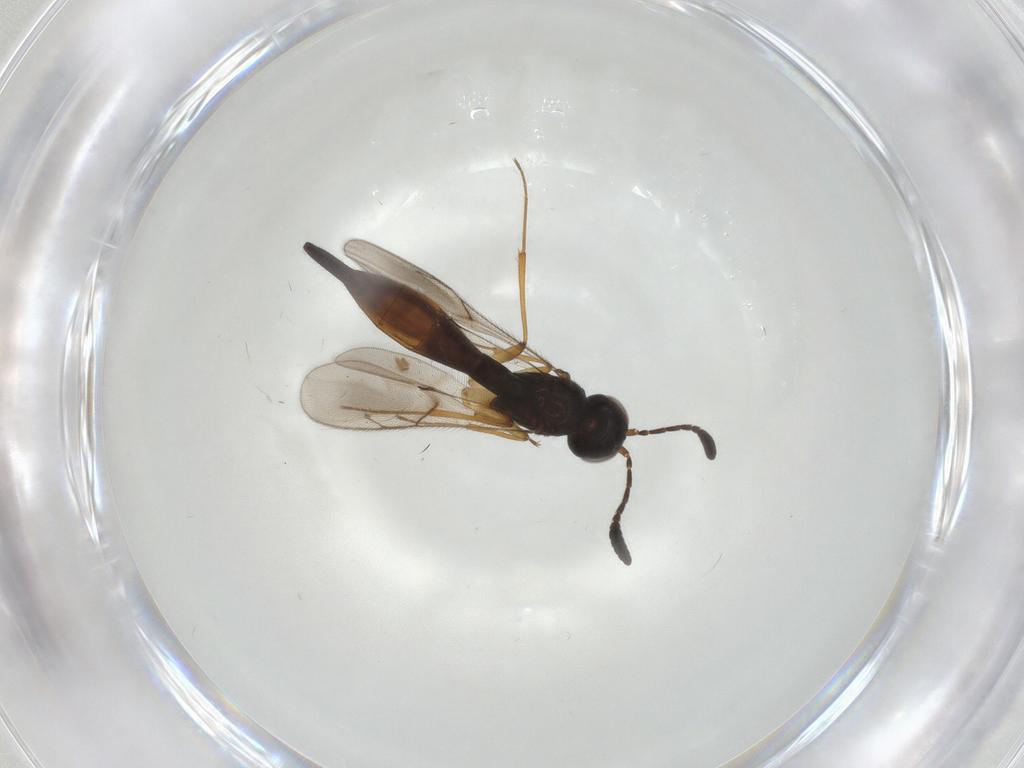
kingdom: Animalia
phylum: Arthropoda
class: Insecta
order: Hymenoptera
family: Scelionidae
